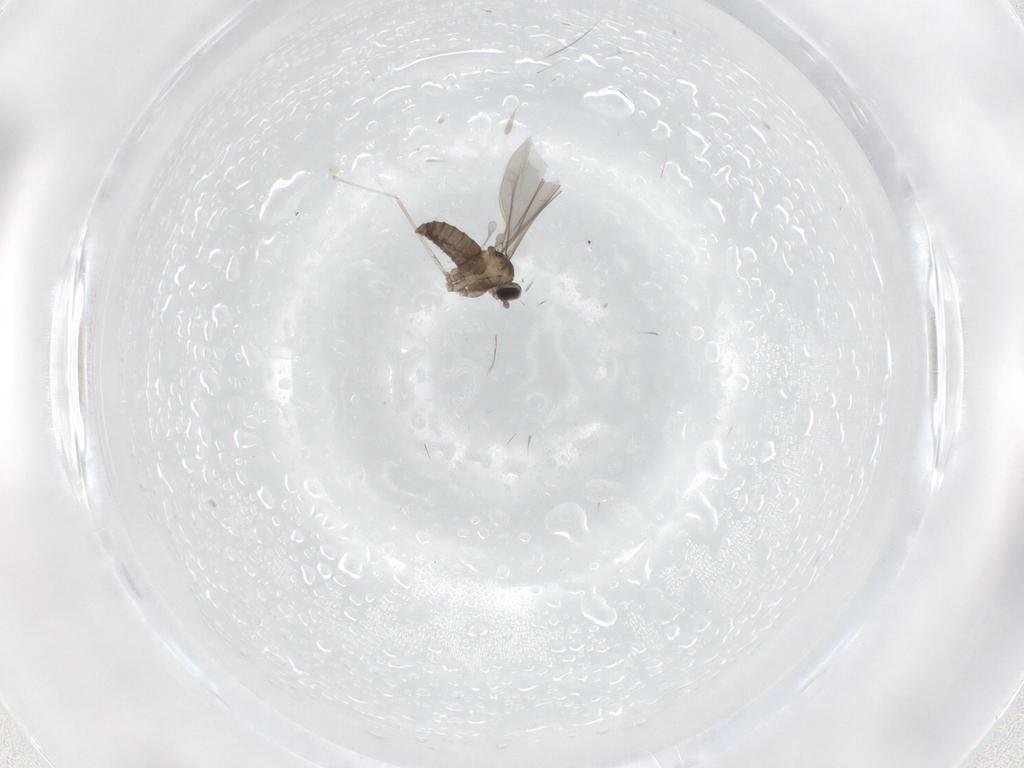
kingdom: Animalia
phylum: Arthropoda
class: Insecta
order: Diptera
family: Cecidomyiidae
